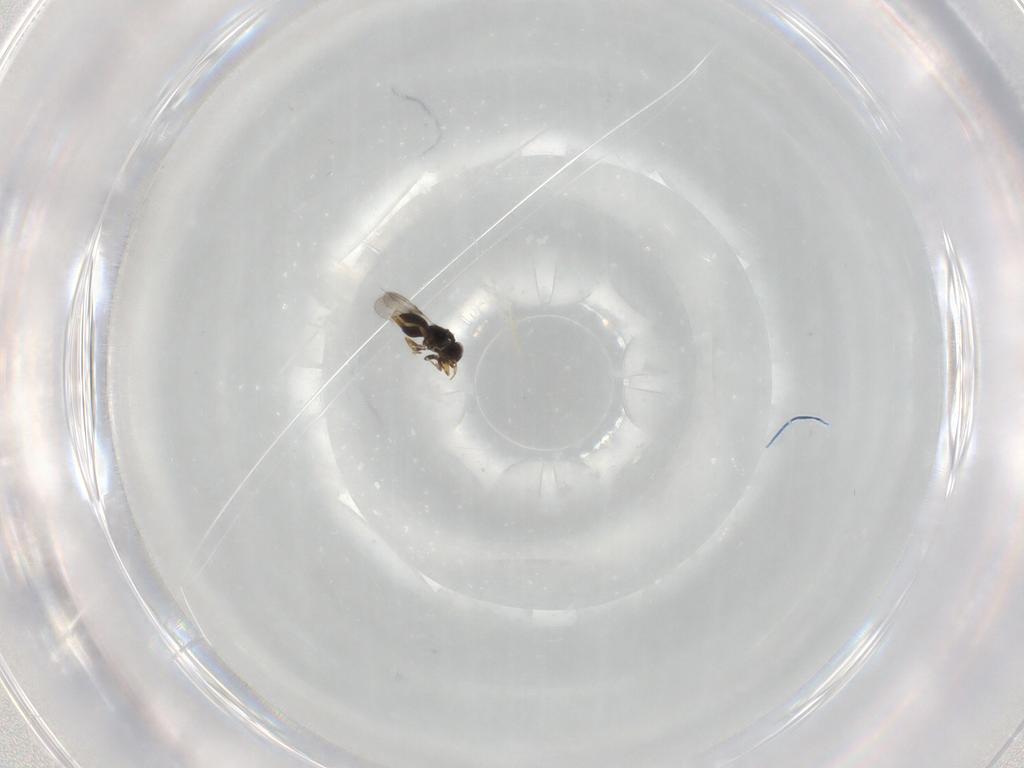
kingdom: Animalia
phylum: Arthropoda
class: Insecta
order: Hymenoptera
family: Ceraphronidae
